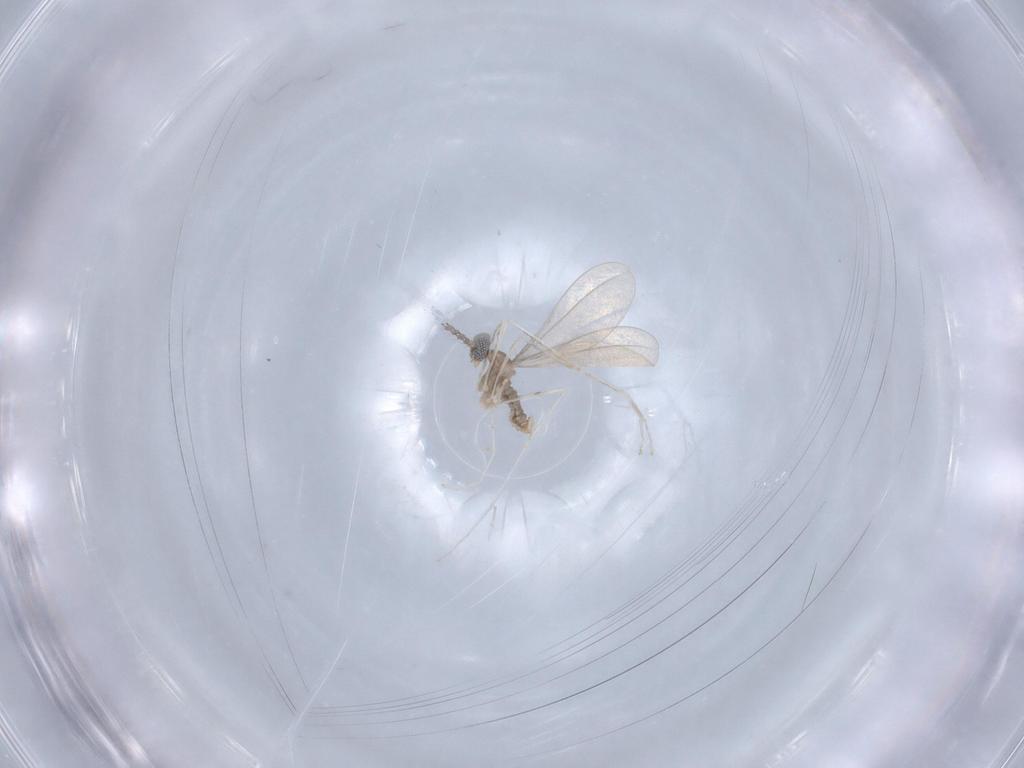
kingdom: Animalia
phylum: Arthropoda
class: Insecta
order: Diptera
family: Cecidomyiidae
